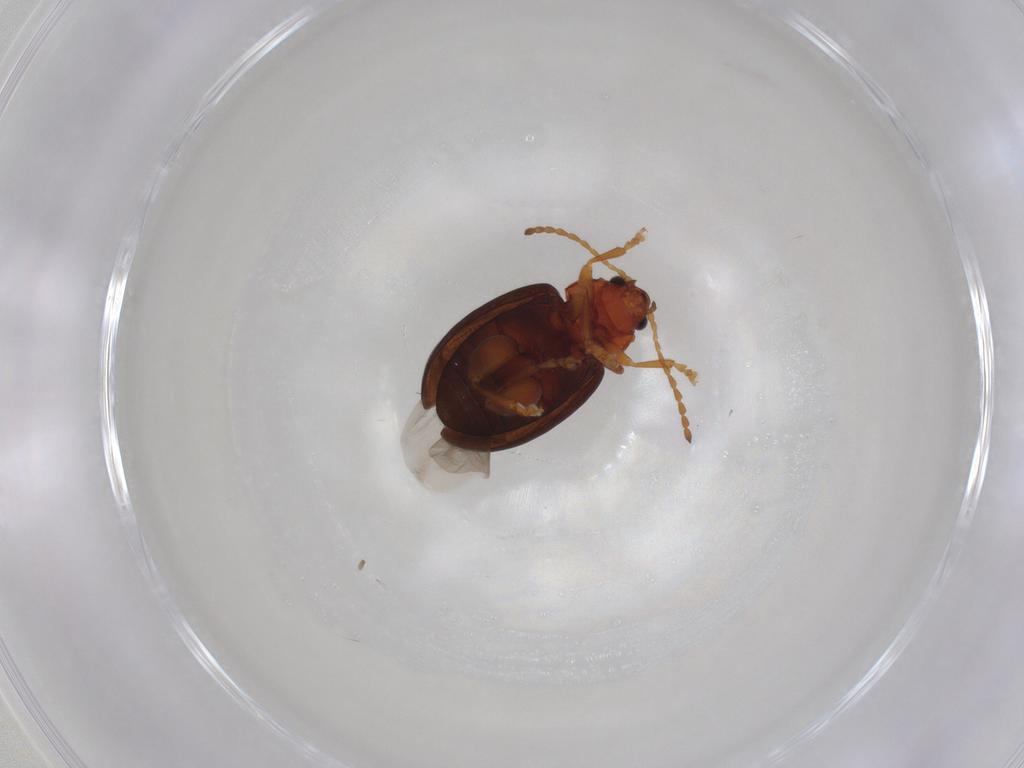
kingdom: Animalia
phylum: Arthropoda
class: Insecta
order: Coleoptera
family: Chrysomelidae
